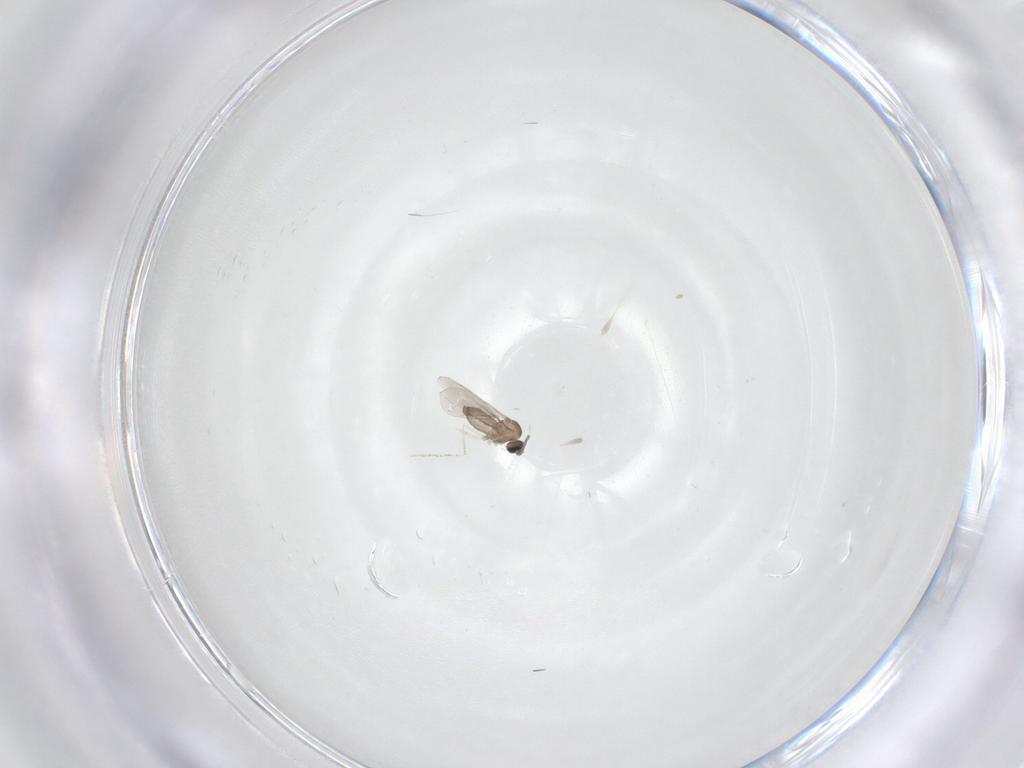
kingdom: Animalia
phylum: Arthropoda
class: Insecta
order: Diptera
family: Cecidomyiidae
